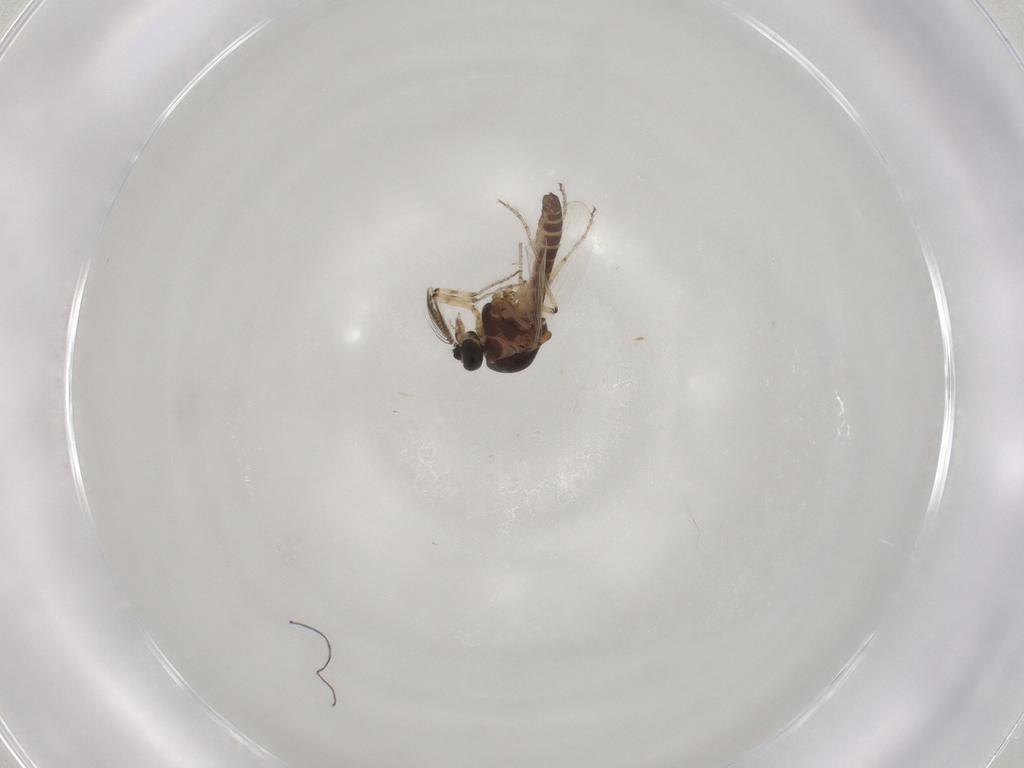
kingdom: Animalia
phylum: Arthropoda
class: Insecta
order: Diptera
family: Ceratopogonidae
